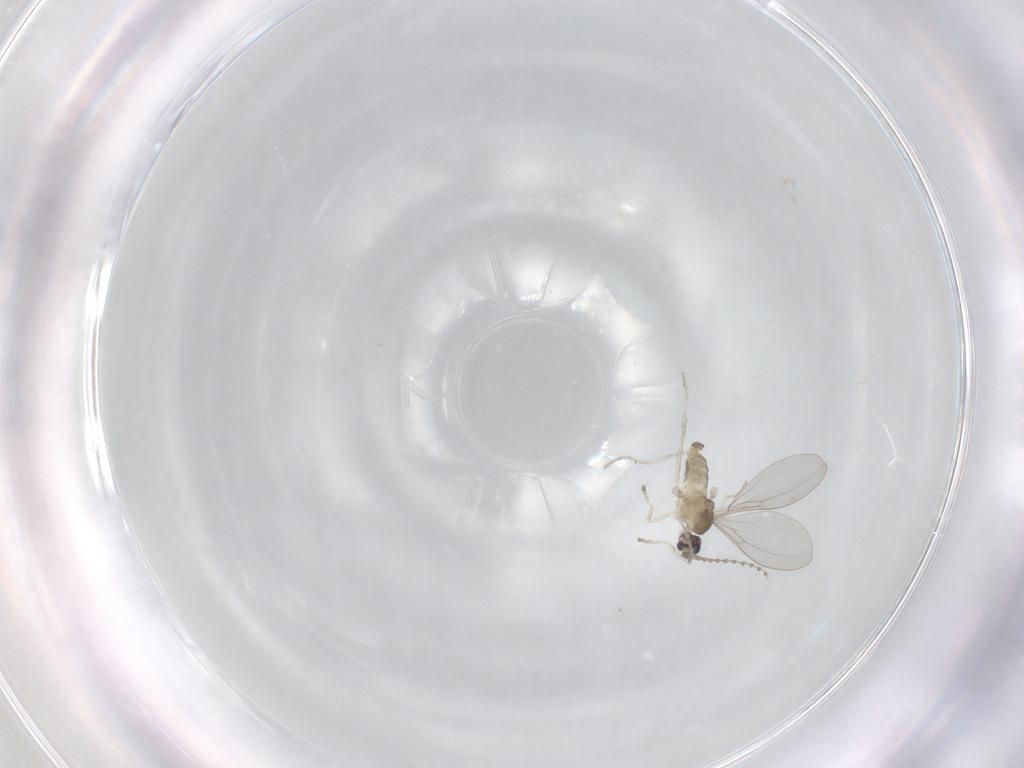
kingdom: Animalia
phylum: Arthropoda
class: Insecta
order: Diptera
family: Cecidomyiidae
